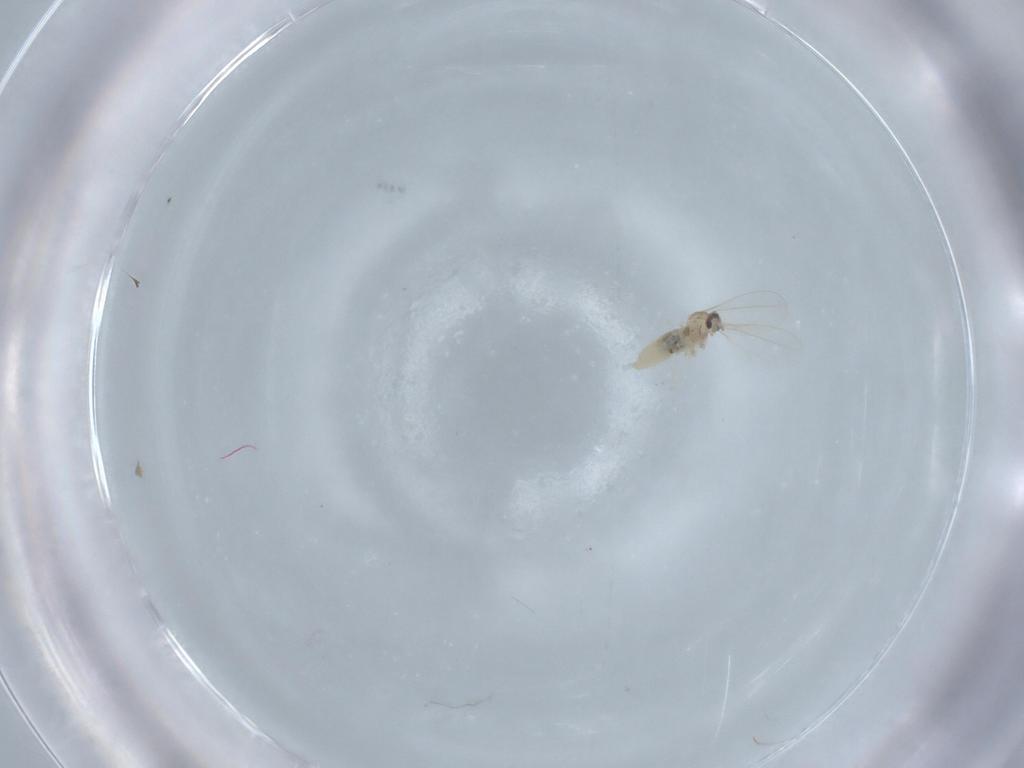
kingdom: Animalia
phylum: Arthropoda
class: Insecta
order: Diptera
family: Cecidomyiidae
